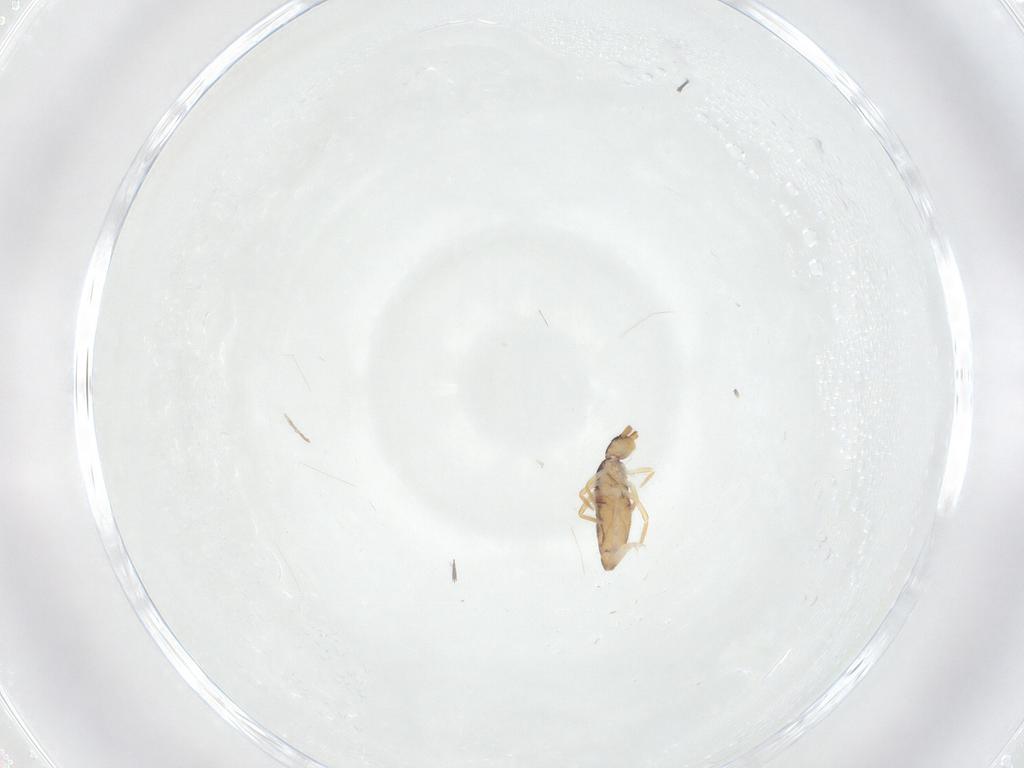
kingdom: Animalia
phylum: Arthropoda
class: Collembola
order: Entomobryomorpha
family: Entomobryidae
